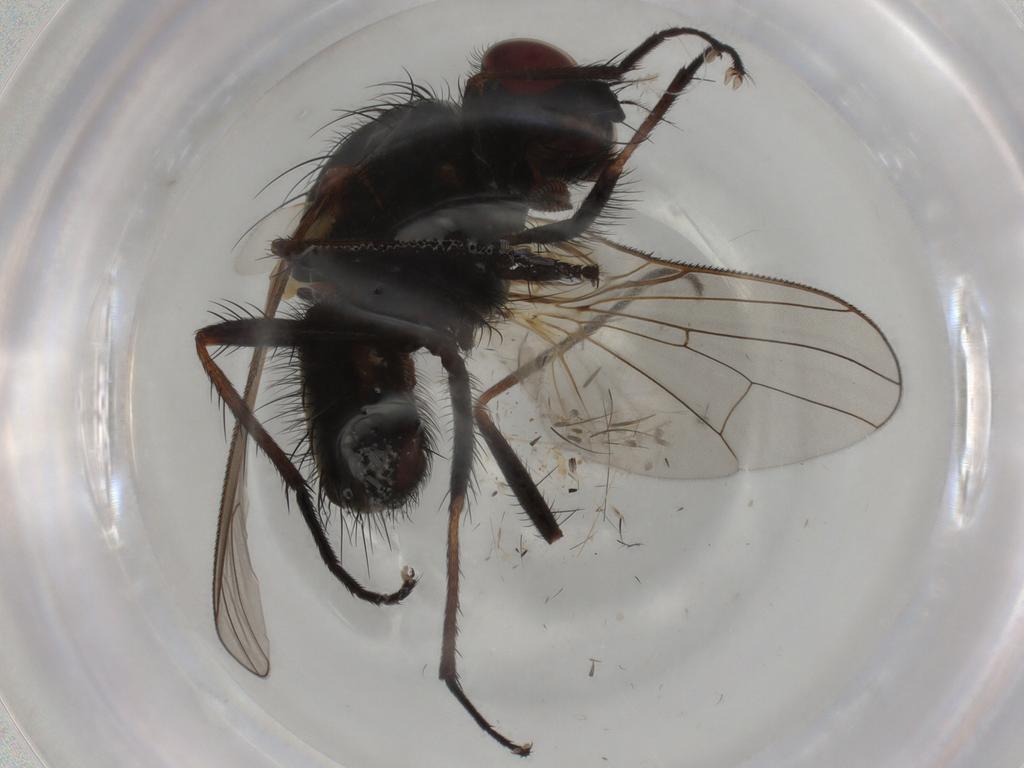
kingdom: Animalia
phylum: Arthropoda
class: Insecta
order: Diptera
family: Anthomyiidae
